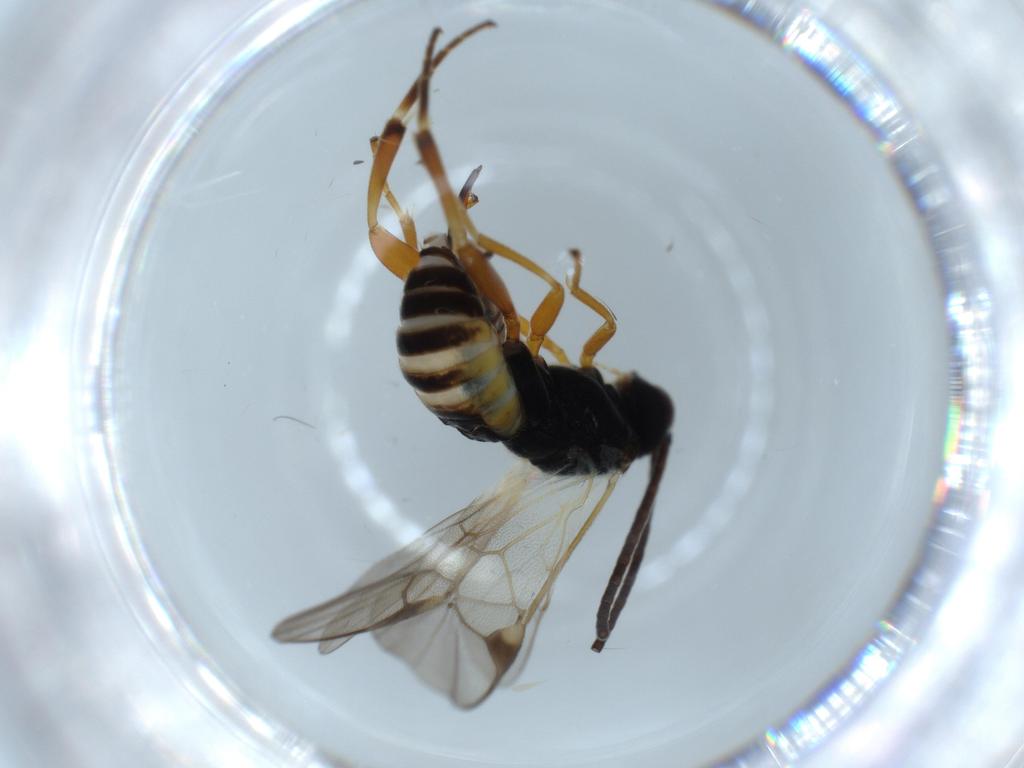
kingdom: Animalia
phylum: Arthropoda
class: Insecta
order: Hymenoptera
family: Braconidae
